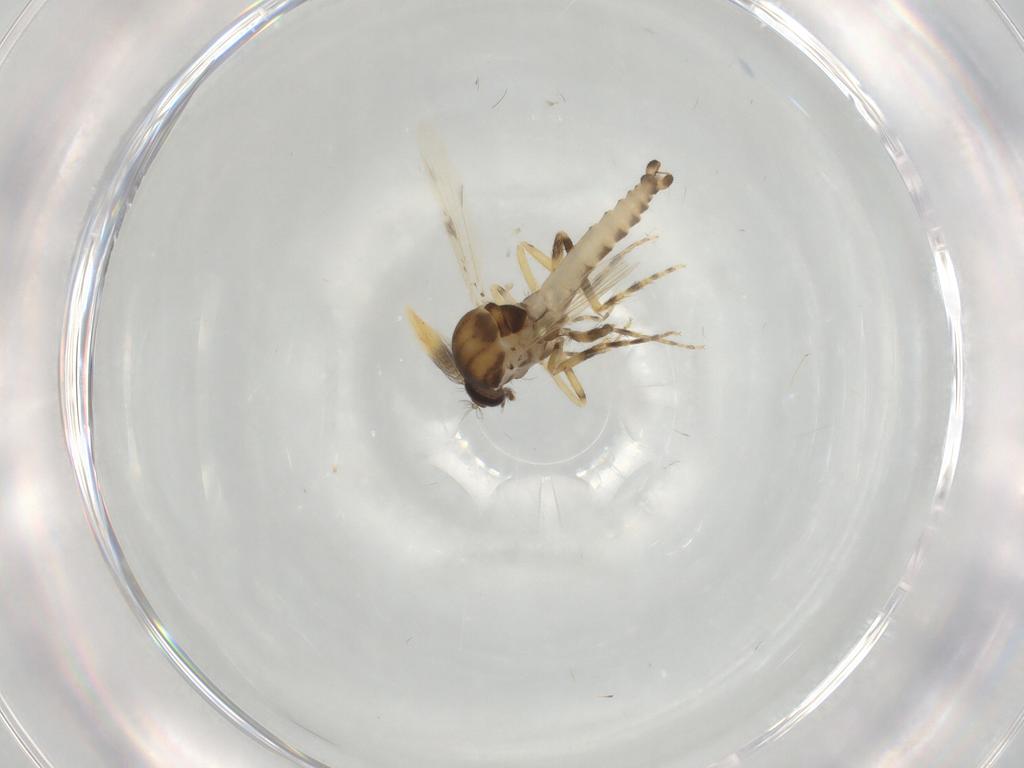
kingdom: Animalia
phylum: Arthropoda
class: Insecta
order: Diptera
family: Ceratopogonidae
